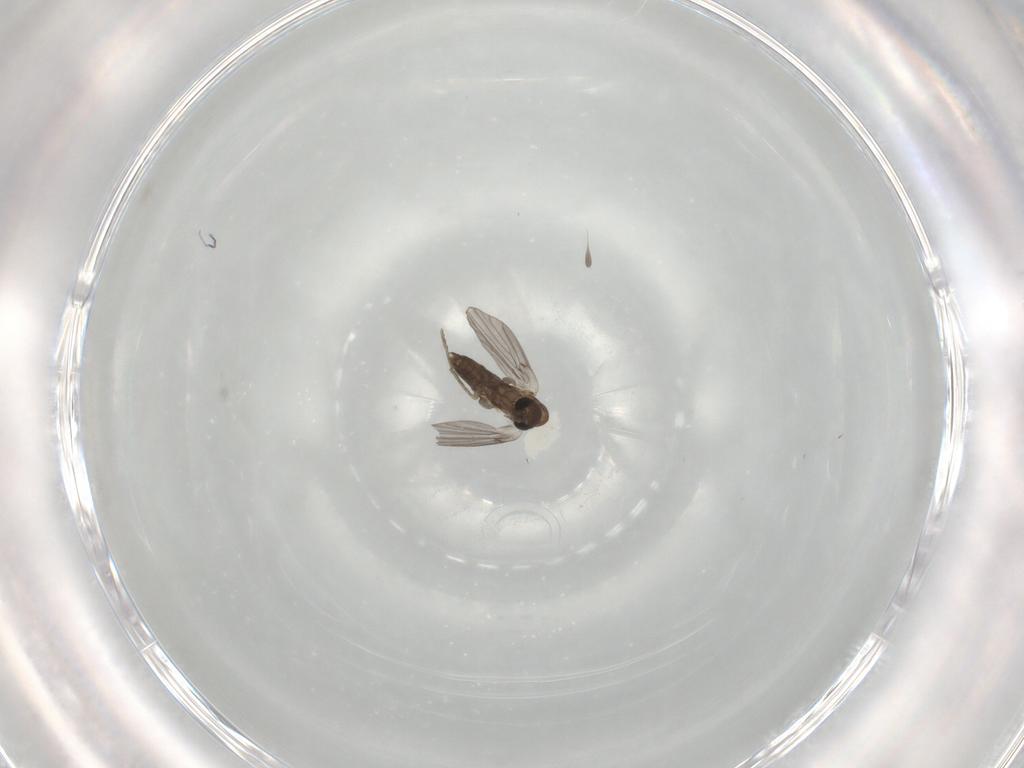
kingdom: Animalia
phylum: Arthropoda
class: Insecta
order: Diptera
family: Chironomidae
